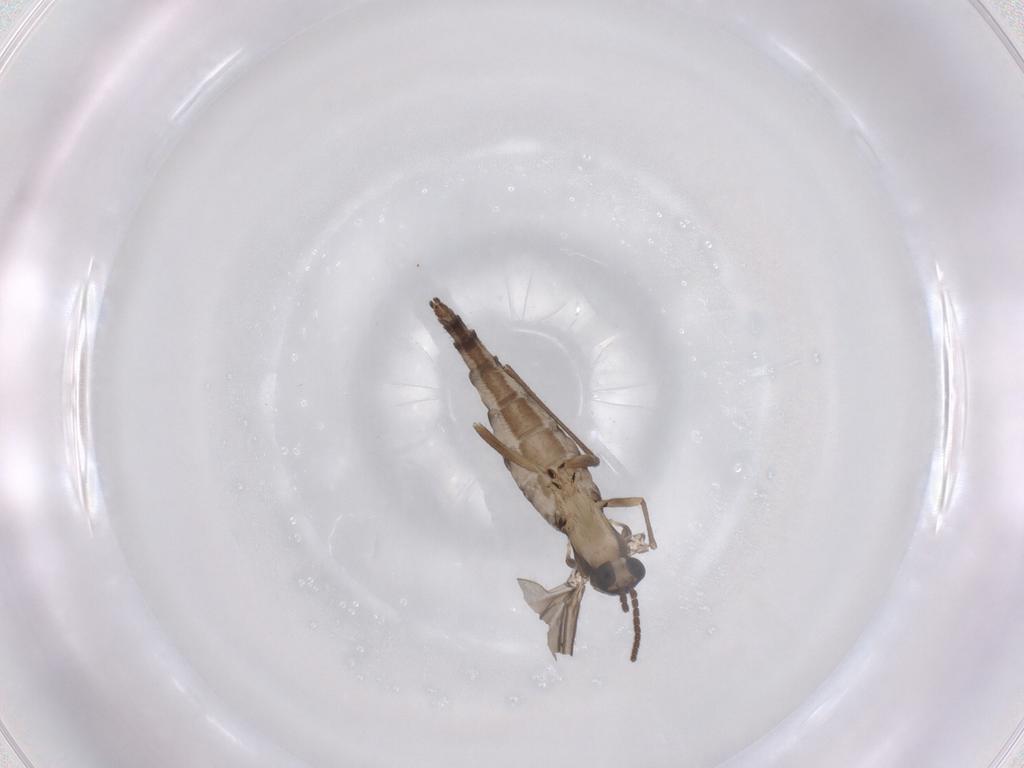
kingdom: Animalia
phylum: Arthropoda
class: Insecta
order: Diptera
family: Sciaridae
